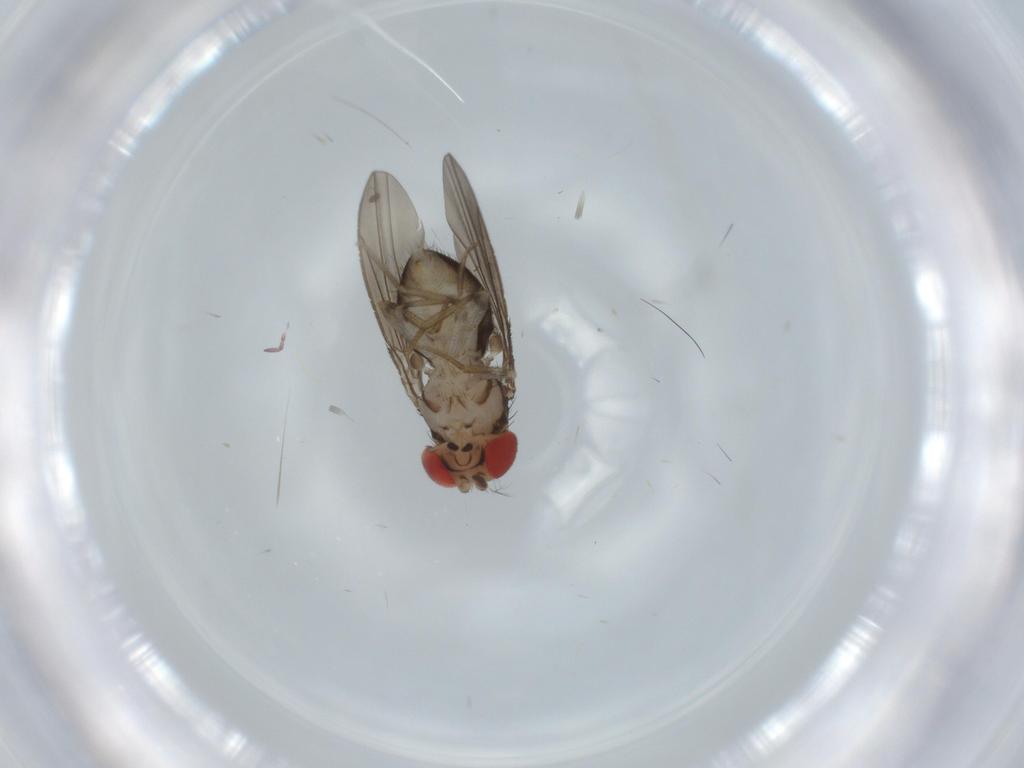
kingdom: Animalia
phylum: Arthropoda
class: Insecta
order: Diptera
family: Drosophilidae
